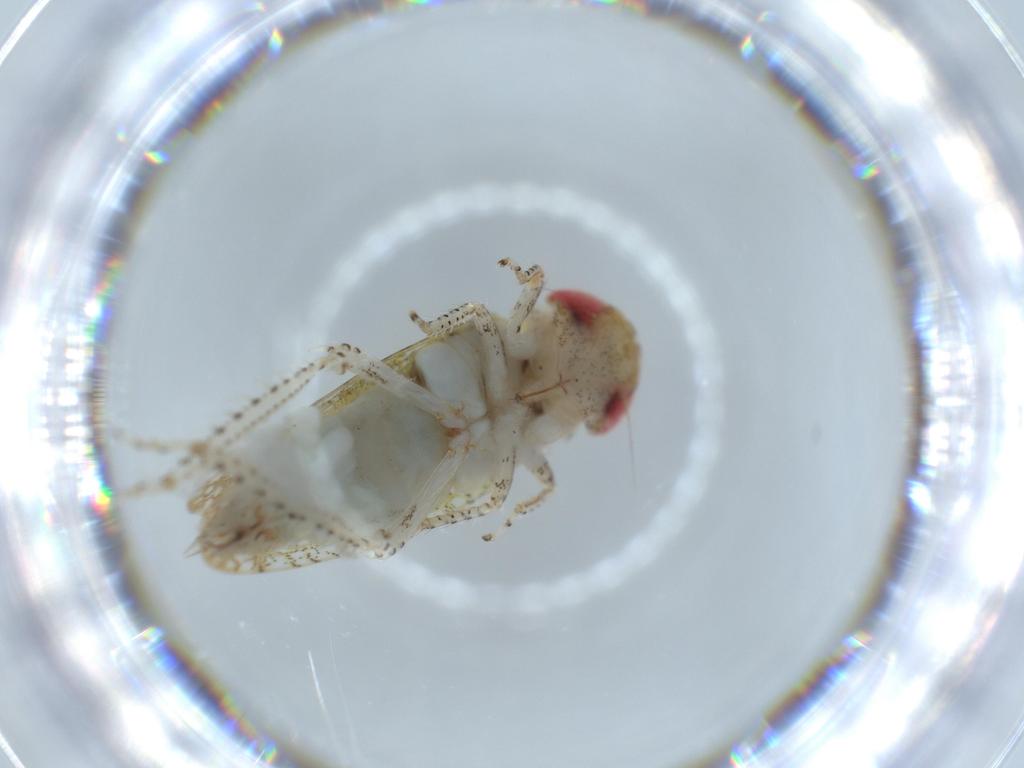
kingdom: Animalia
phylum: Arthropoda
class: Insecta
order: Hemiptera
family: Cicadellidae
